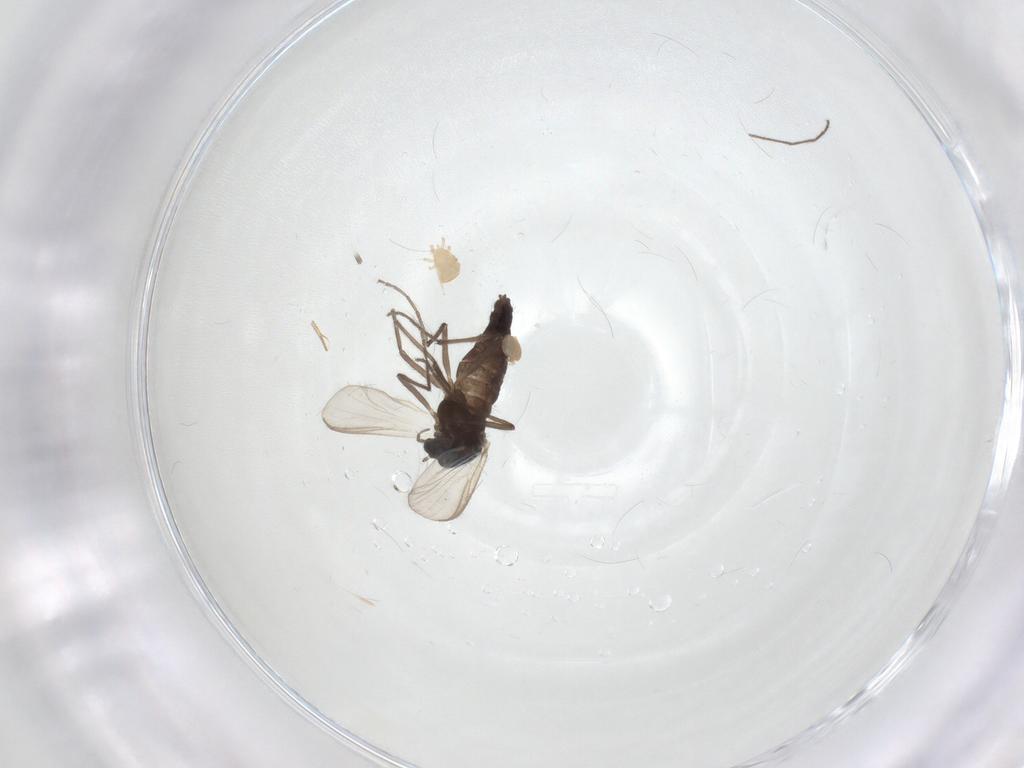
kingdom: Animalia
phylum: Arthropoda
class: Insecta
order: Diptera
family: Chironomidae
